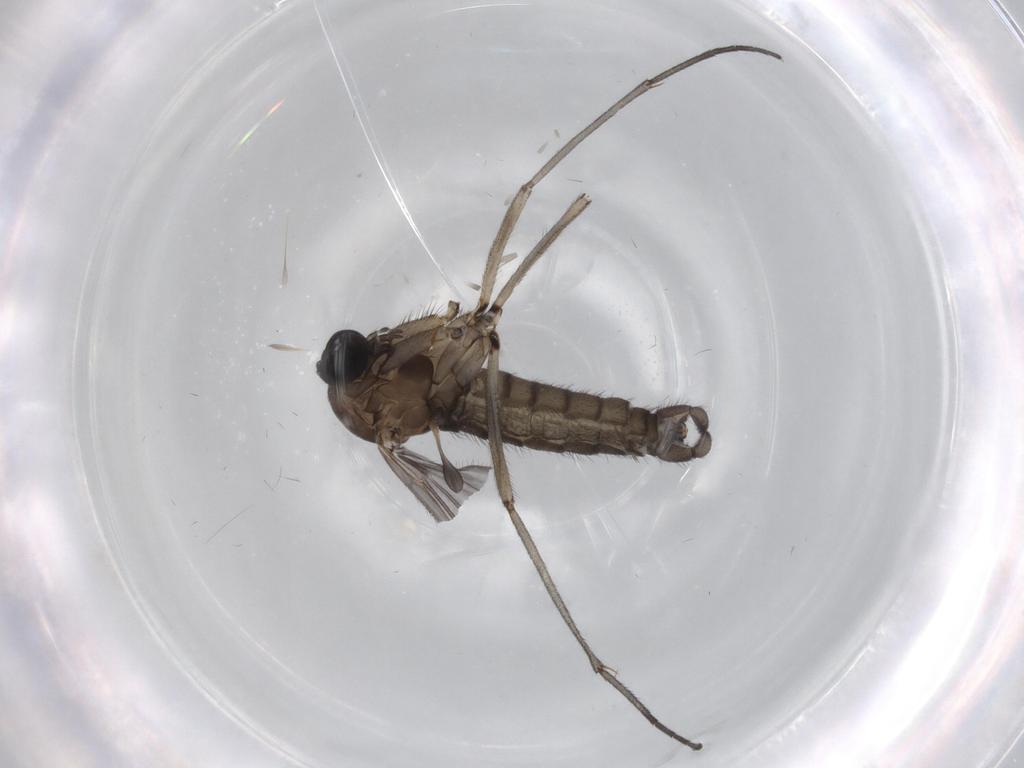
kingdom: Animalia
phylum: Arthropoda
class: Insecta
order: Diptera
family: Sciaridae
